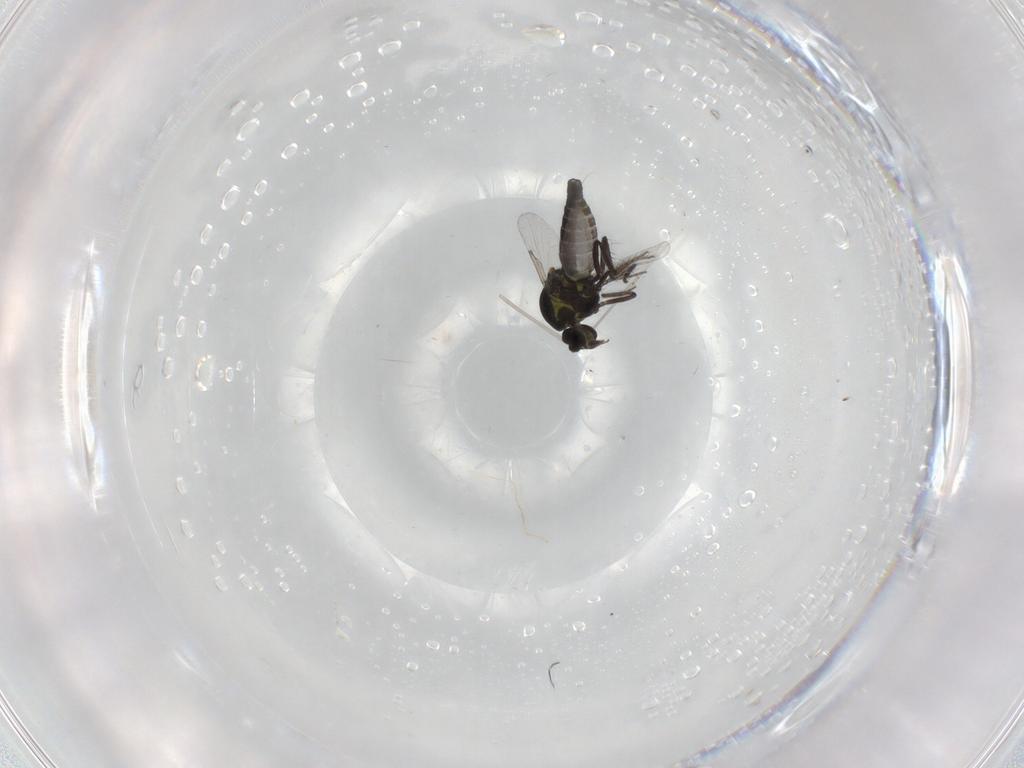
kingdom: Animalia
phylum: Arthropoda
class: Insecta
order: Diptera
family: Ceratopogonidae
